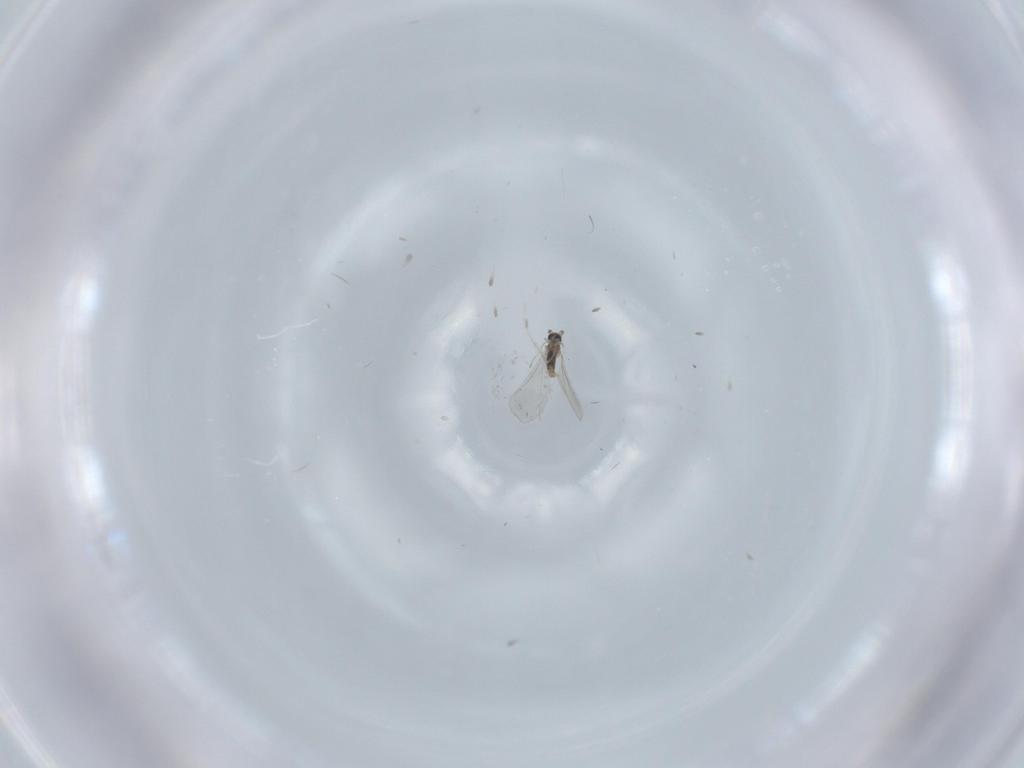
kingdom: Animalia
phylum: Arthropoda
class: Insecta
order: Diptera
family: Cecidomyiidae
